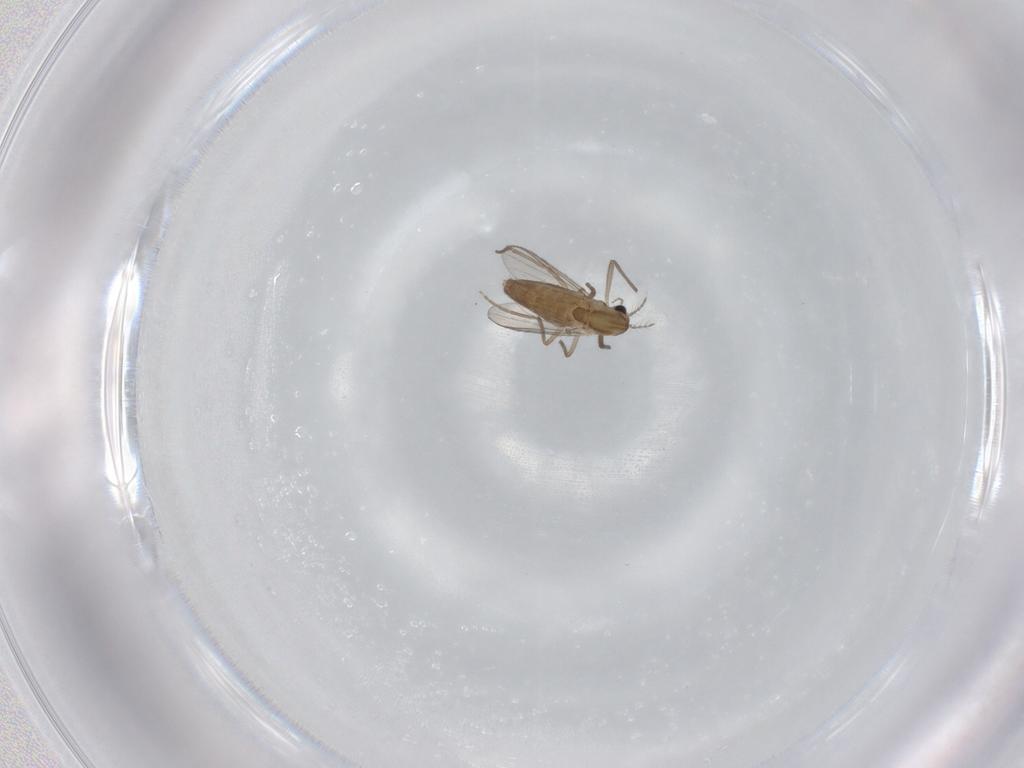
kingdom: Animalia
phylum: Arthropoda
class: Insecta
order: Diptera
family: Chironomidae
